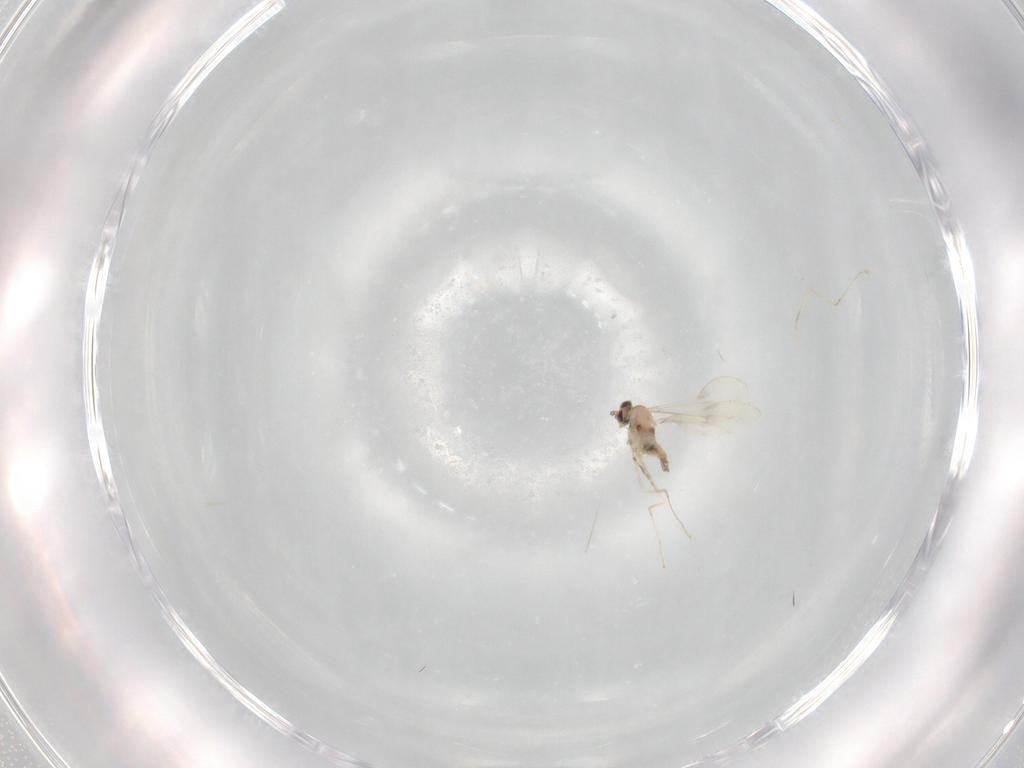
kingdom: Animalia
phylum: Arthropoda
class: Insecta
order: Diptera
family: Cecidomyiidae
